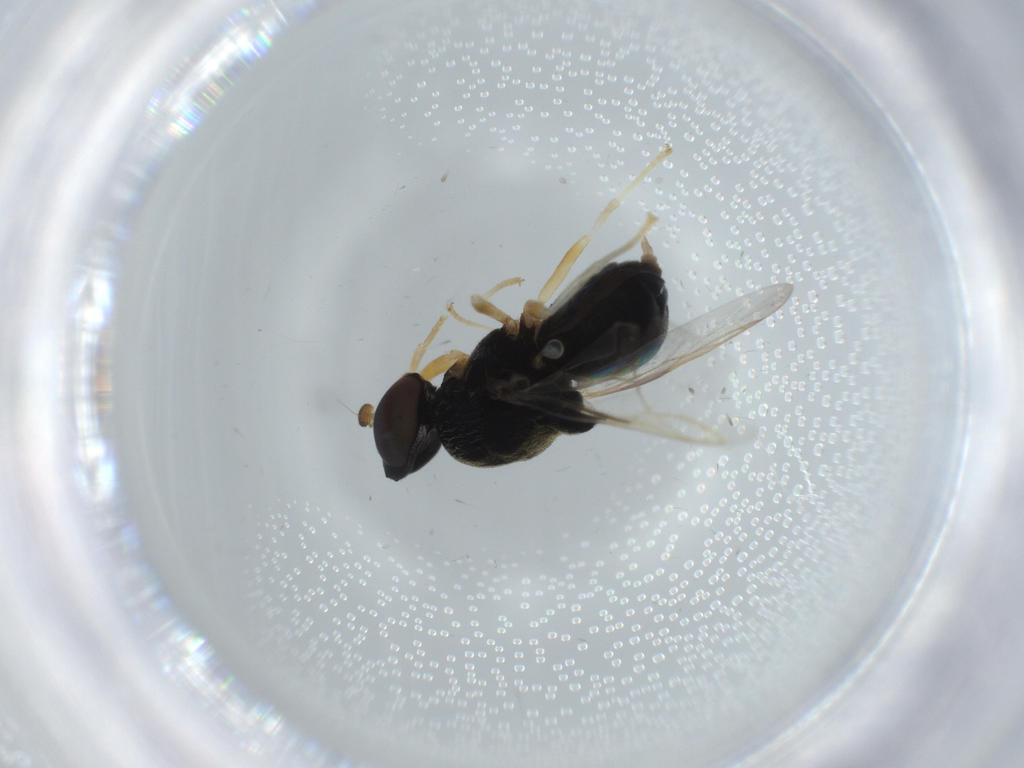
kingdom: Animalia
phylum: Arthropoda
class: Insecta
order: Diptera
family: Stratiomyidae
